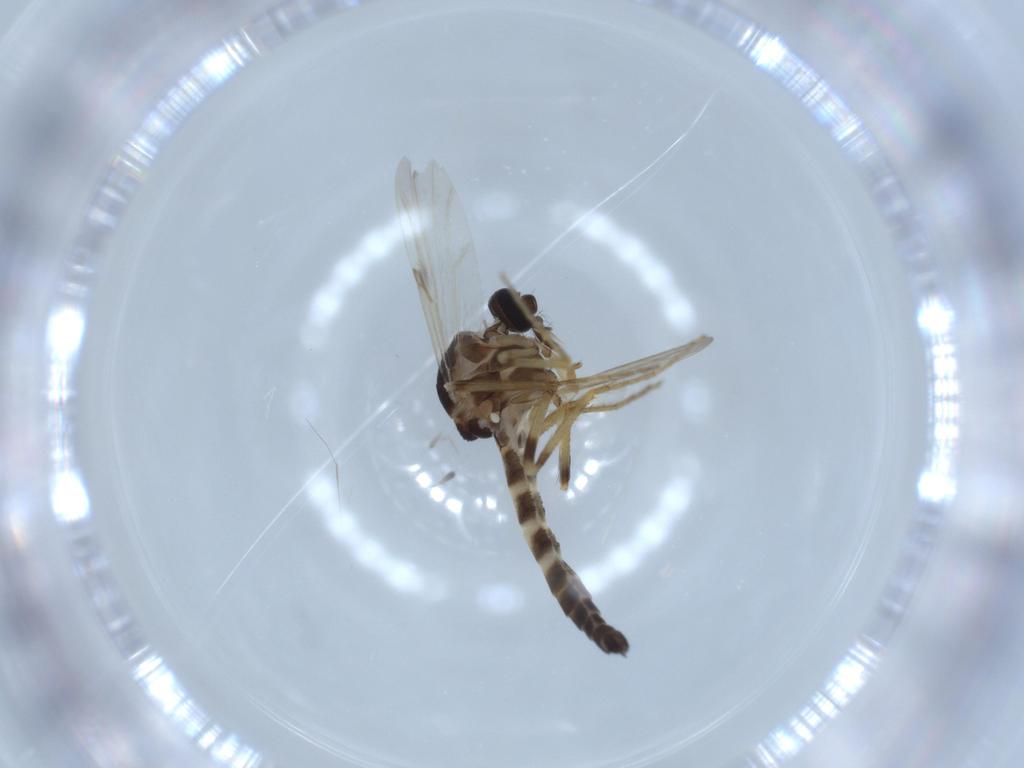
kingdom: Animalia
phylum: Arthropoda
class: Insecta
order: Diptera
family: Ceratopogonidae
